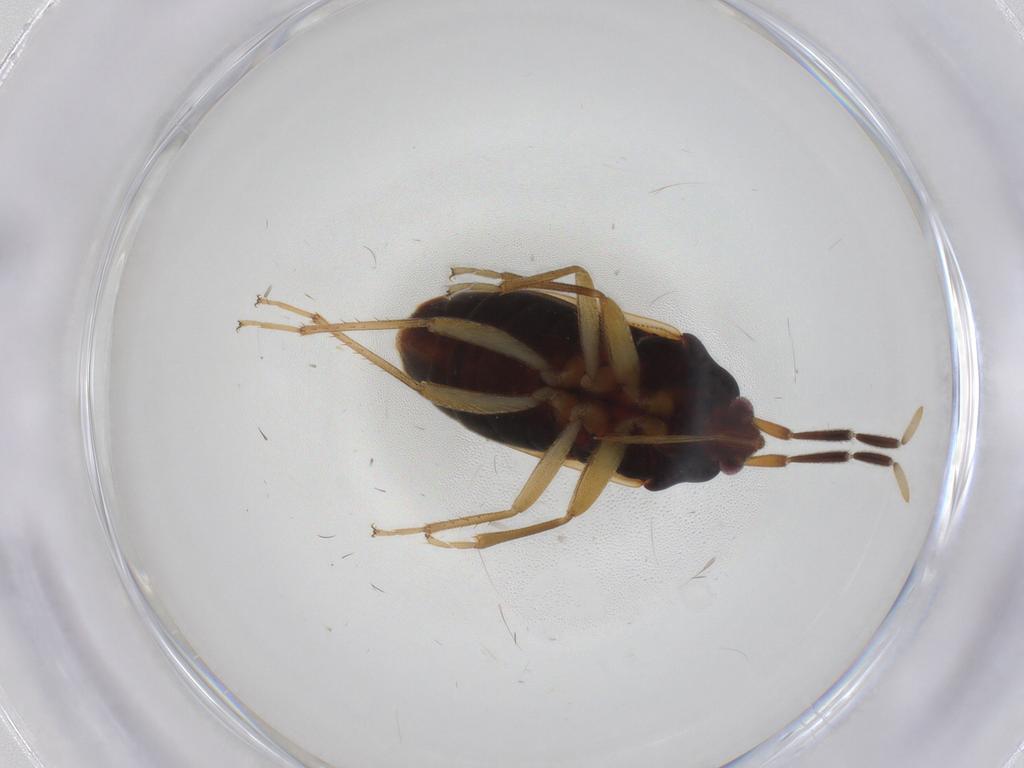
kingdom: Animalia
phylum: Arthropoda
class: Insecta
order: Hemiptera
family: Rhyparochromidae
